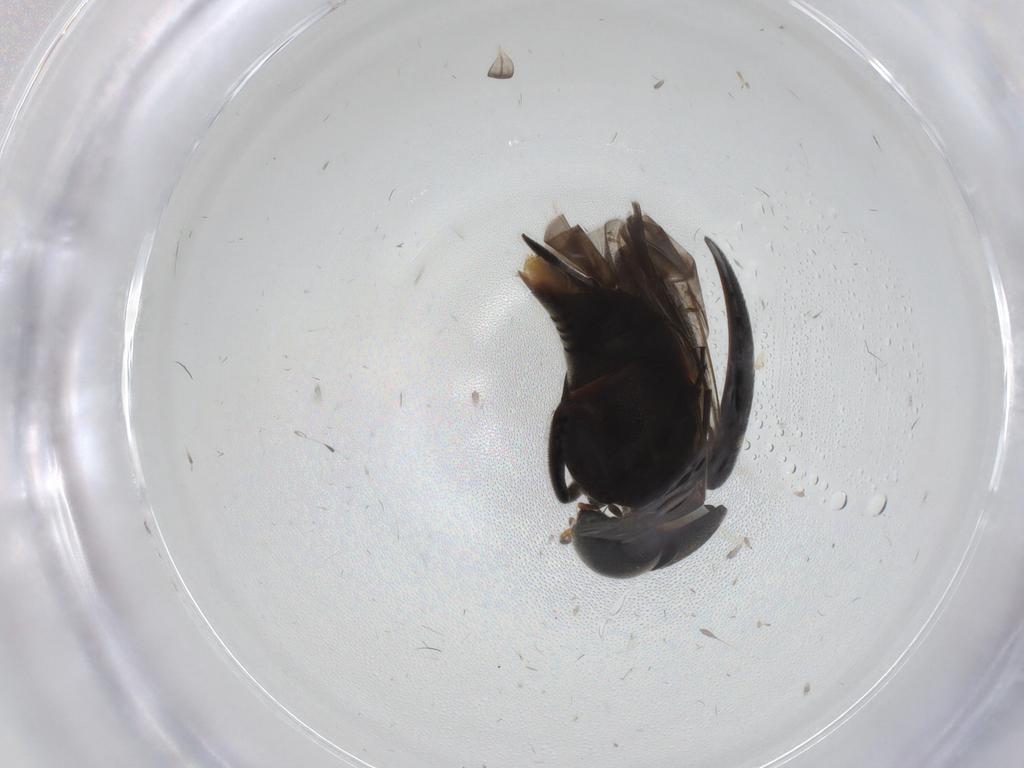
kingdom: Animalia
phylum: Arthropoda
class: Insecta
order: Coleoptera
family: Mordellidae
